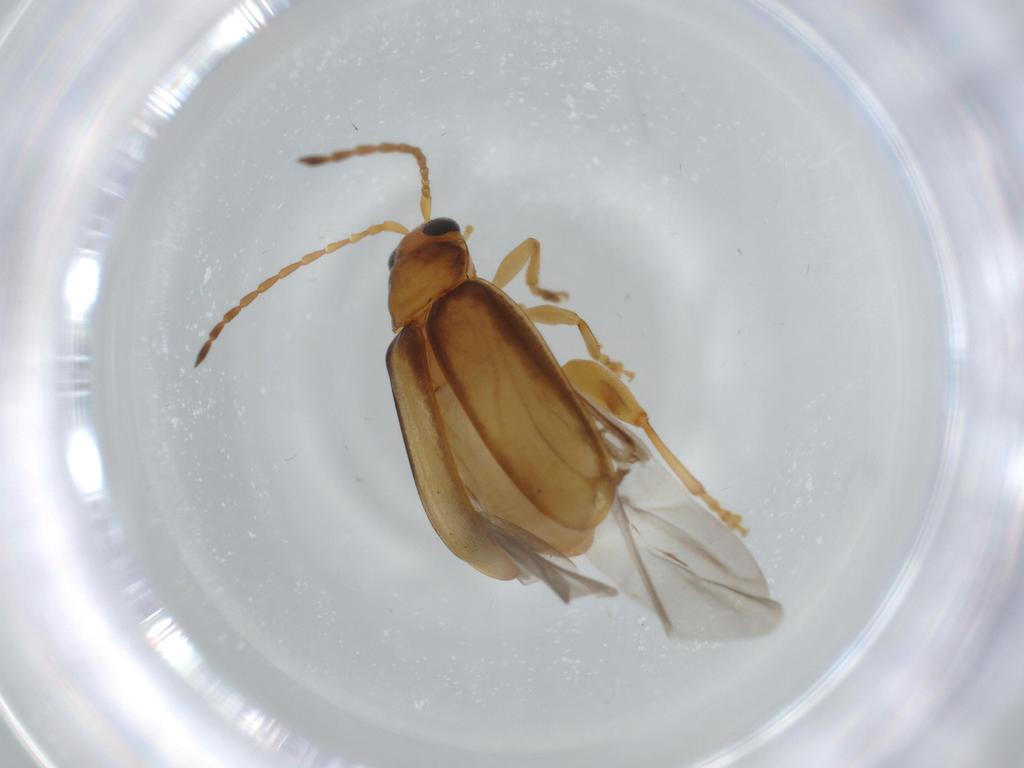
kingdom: Animalia
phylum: Arthropoda
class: Insecta
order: Coleoptera
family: Chrysomelidae
